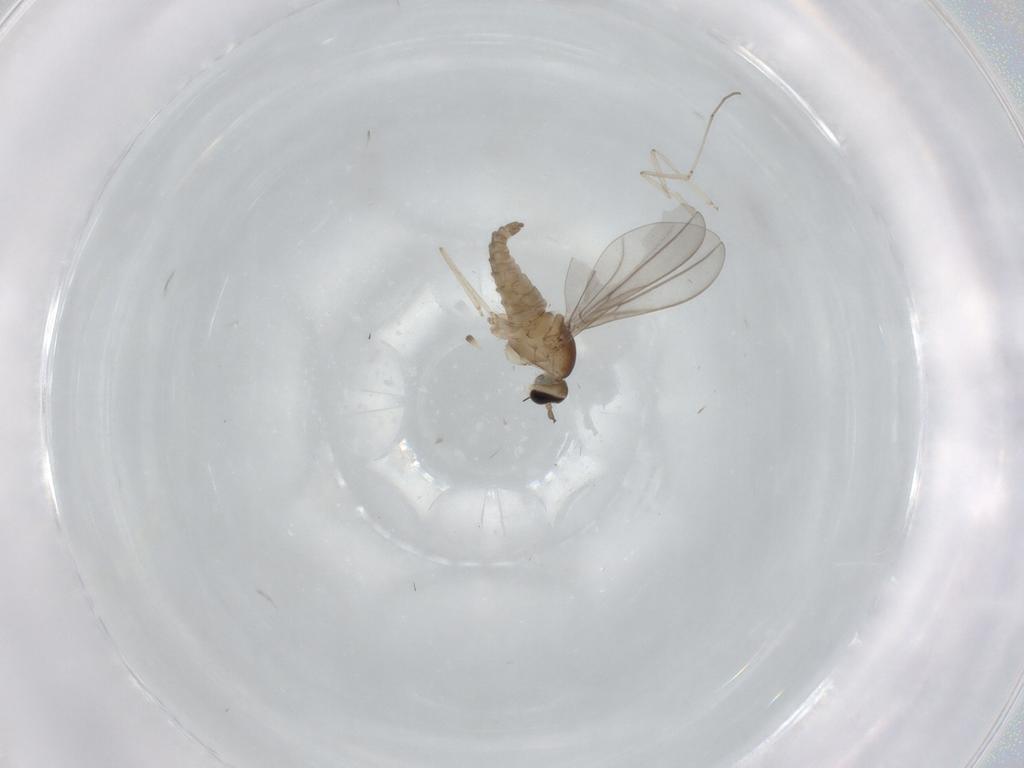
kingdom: Animalia
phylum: Arthropoda
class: Insecta
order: Diptera
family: Cecidomyiidae
